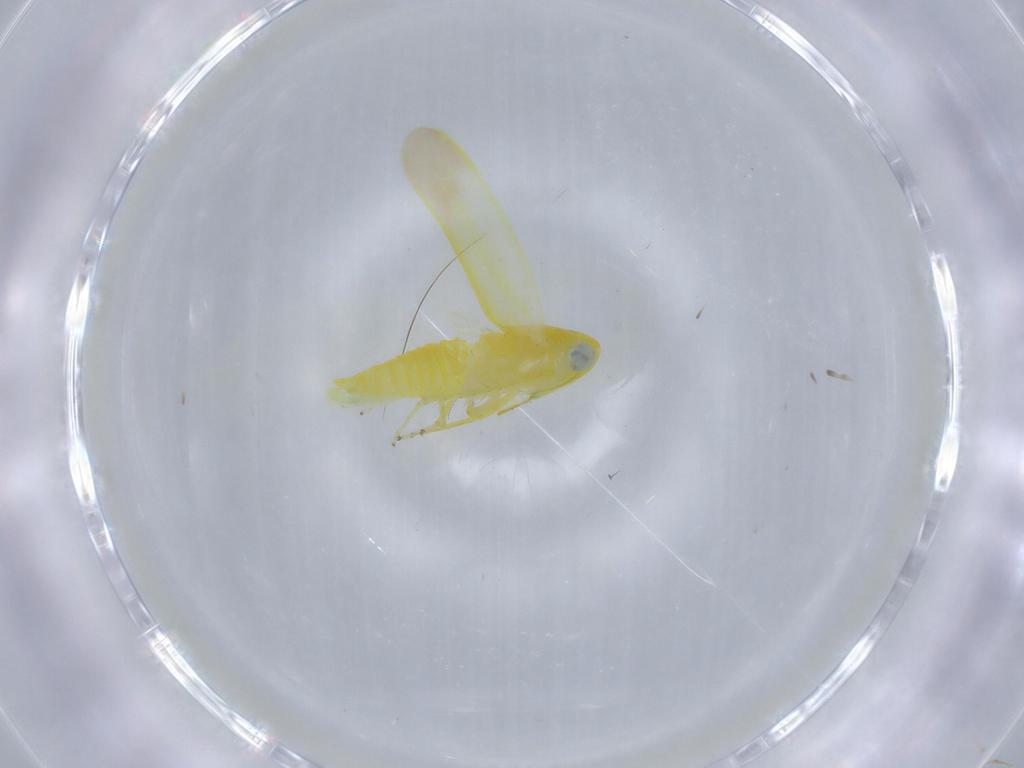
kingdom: Animalia
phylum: Arthropoda
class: Insecta
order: Hemiptera
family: Cicadellidae
